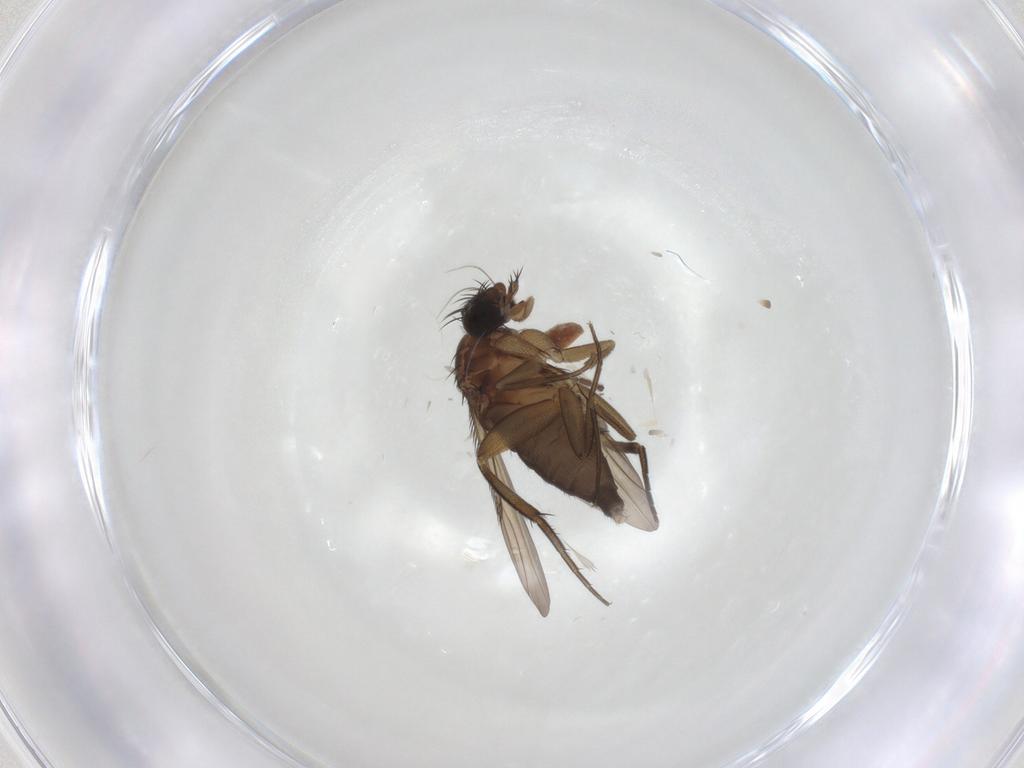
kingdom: Animalia
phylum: Arthropoda
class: Insecta
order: Diptera
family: Phoridae
